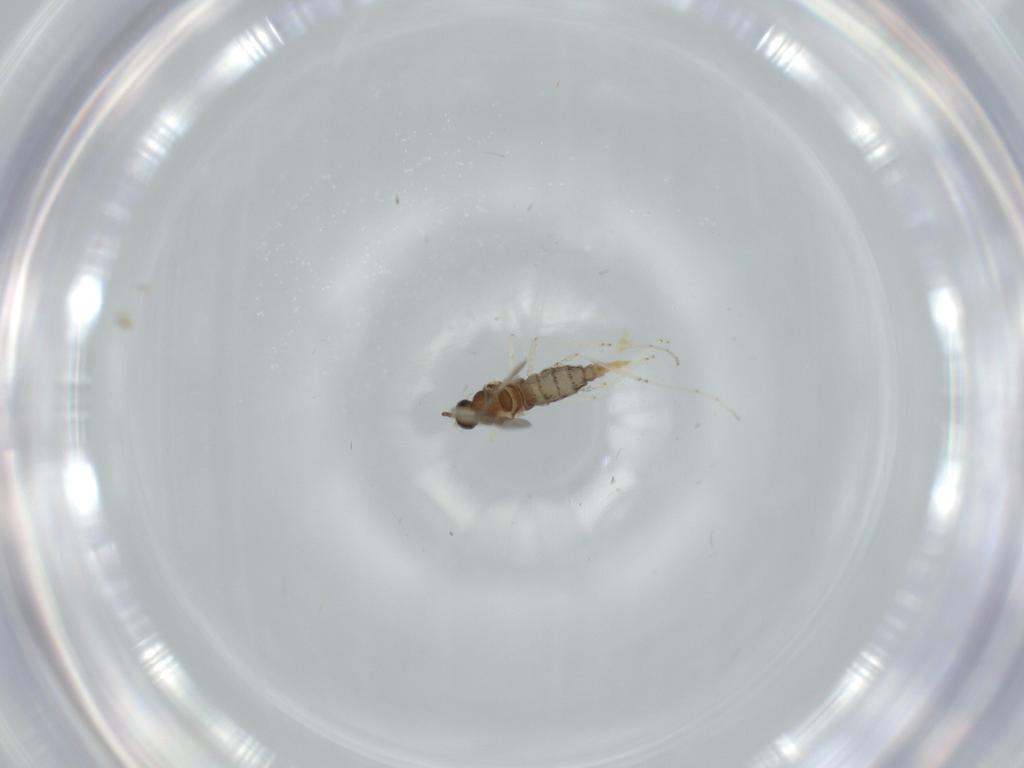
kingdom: Animalia
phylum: Arthropoda
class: Insecta
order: Diptera
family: Cecidomyiidae
